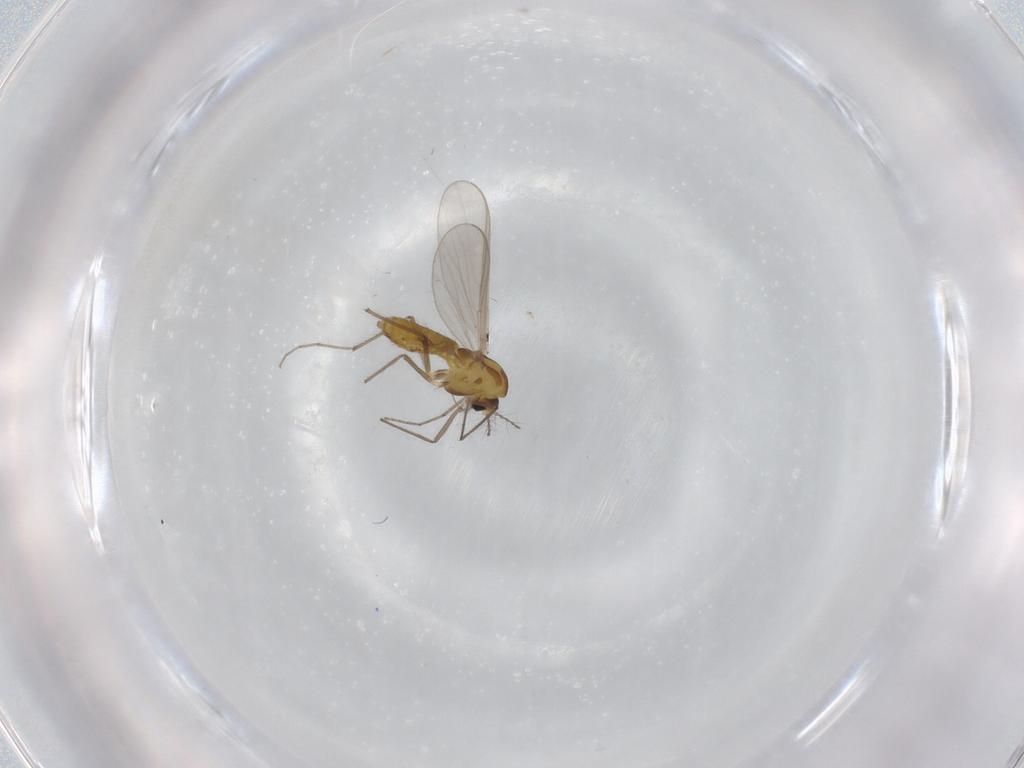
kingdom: Animalia
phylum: Arthropoda
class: Insecta
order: Diptera
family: Chironomidae
